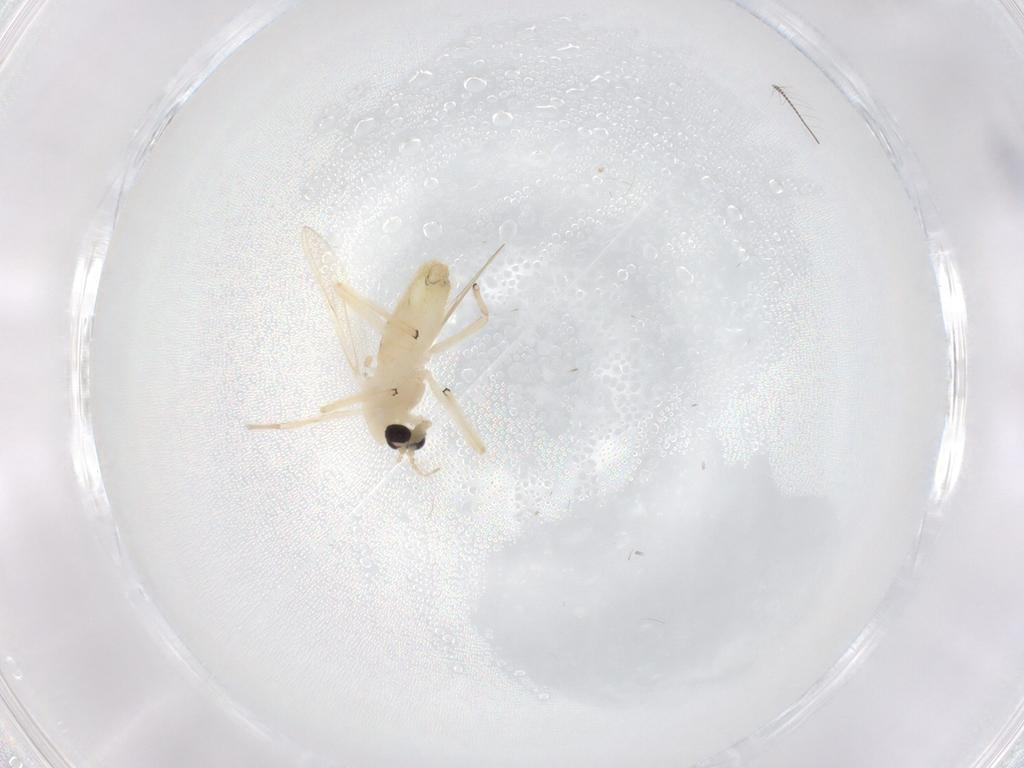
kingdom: Animalia
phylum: Arthropoda
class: Insecta
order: Diptera
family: Chironomidae
